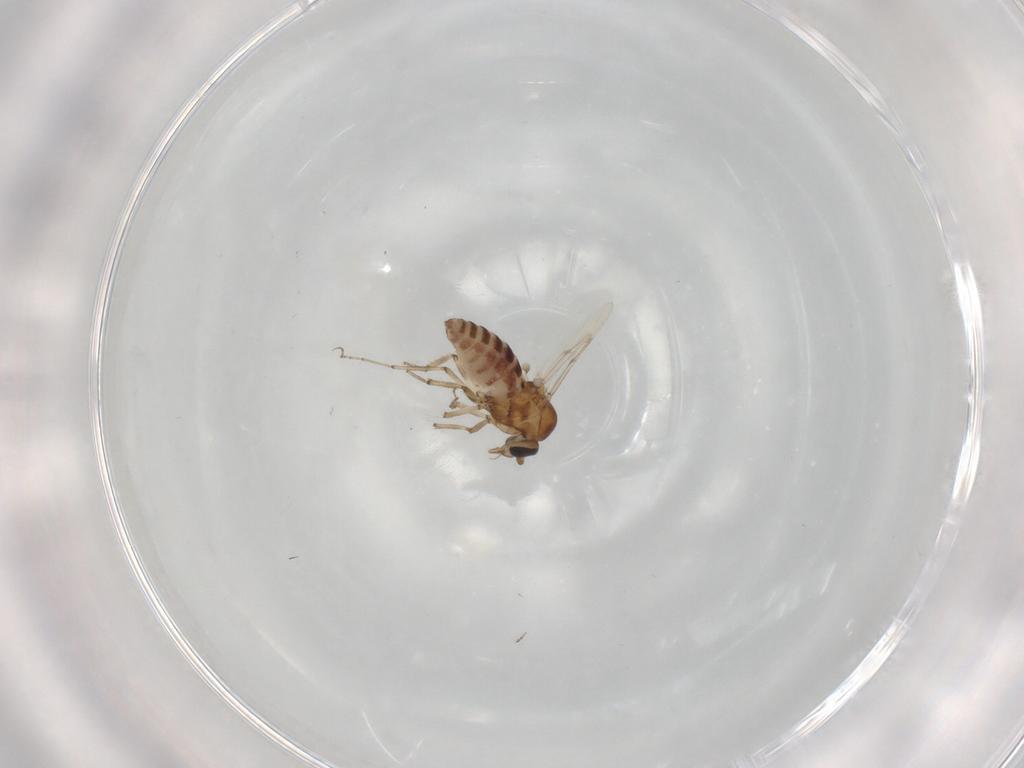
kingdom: Animalia
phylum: Arthropoda
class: Insecta
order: Diptera
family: Ceratopogonidae
